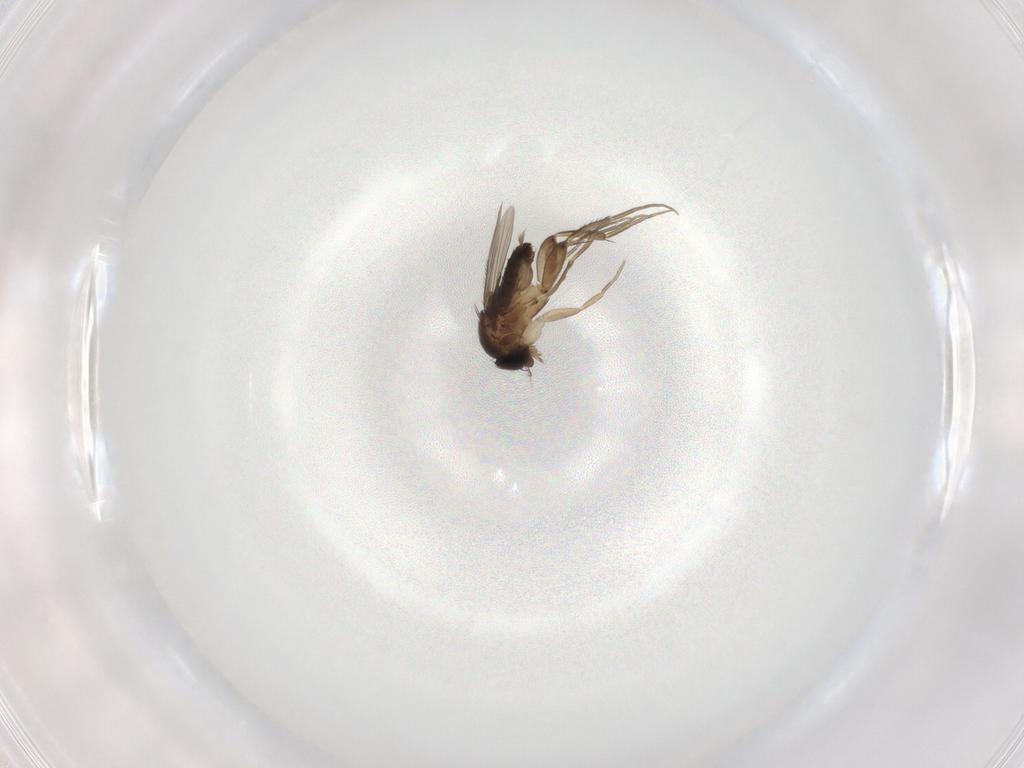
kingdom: Animalia
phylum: Arthropoda
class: Insecta
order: Diptera
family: Phoridae
